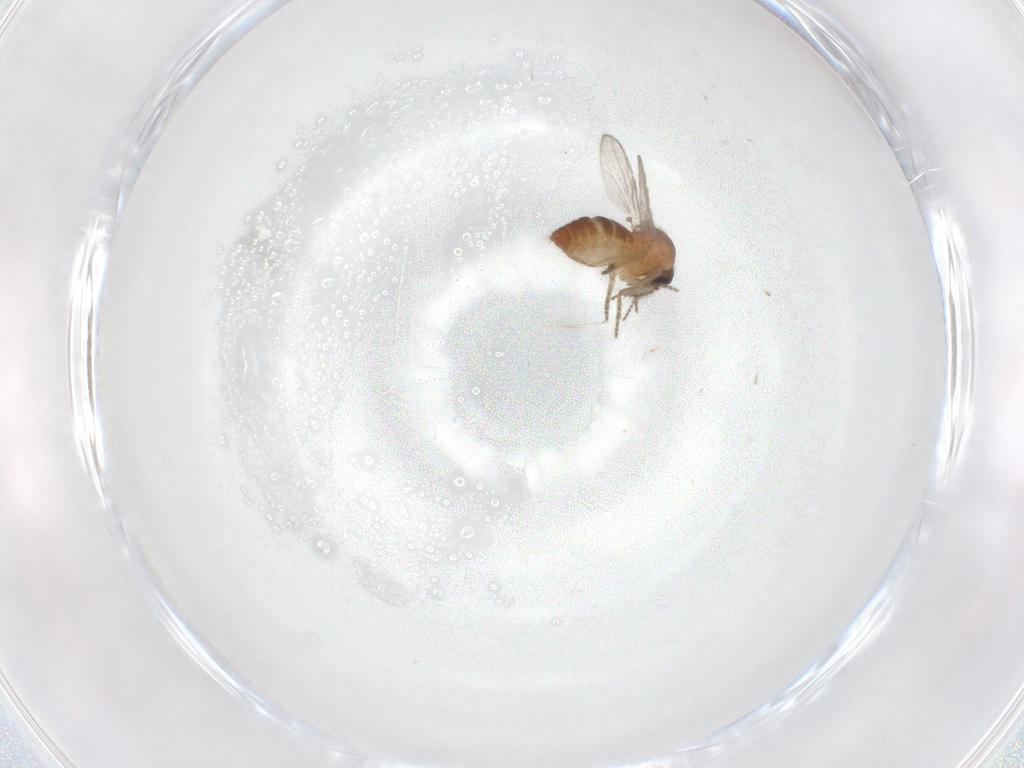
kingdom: Animalia
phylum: Arthropoda
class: Insecta
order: Diptera
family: Ceratopogonidae
